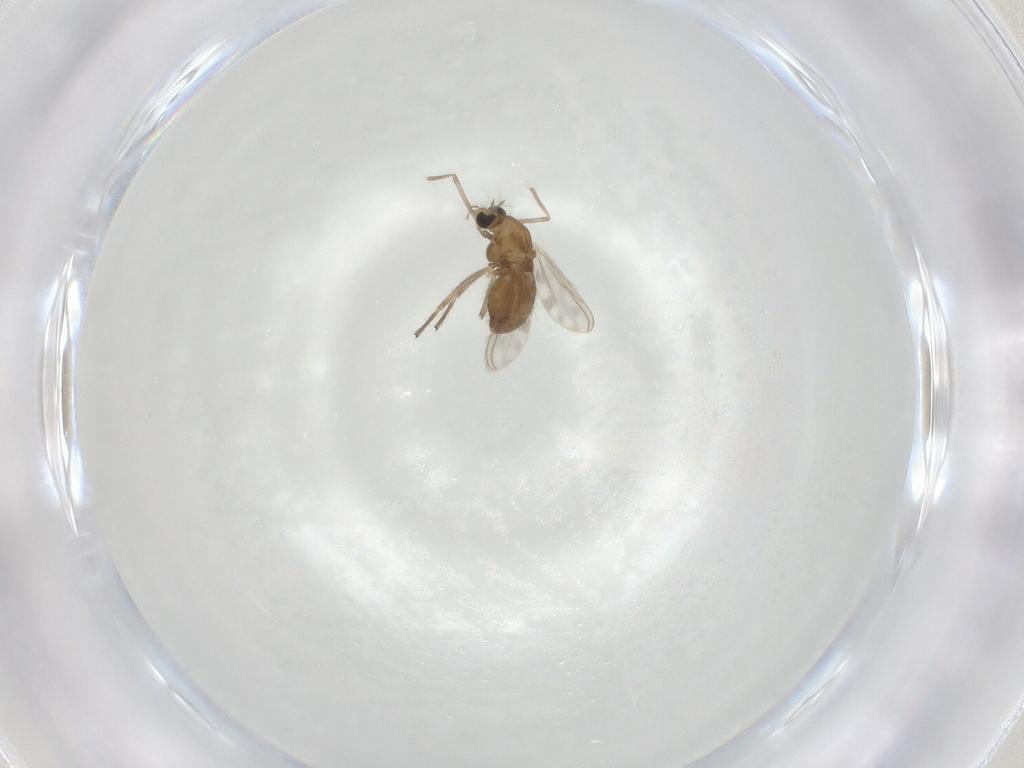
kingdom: Animalia
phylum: Arthropoda
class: Insecta
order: Diptera
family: Chironomidae
